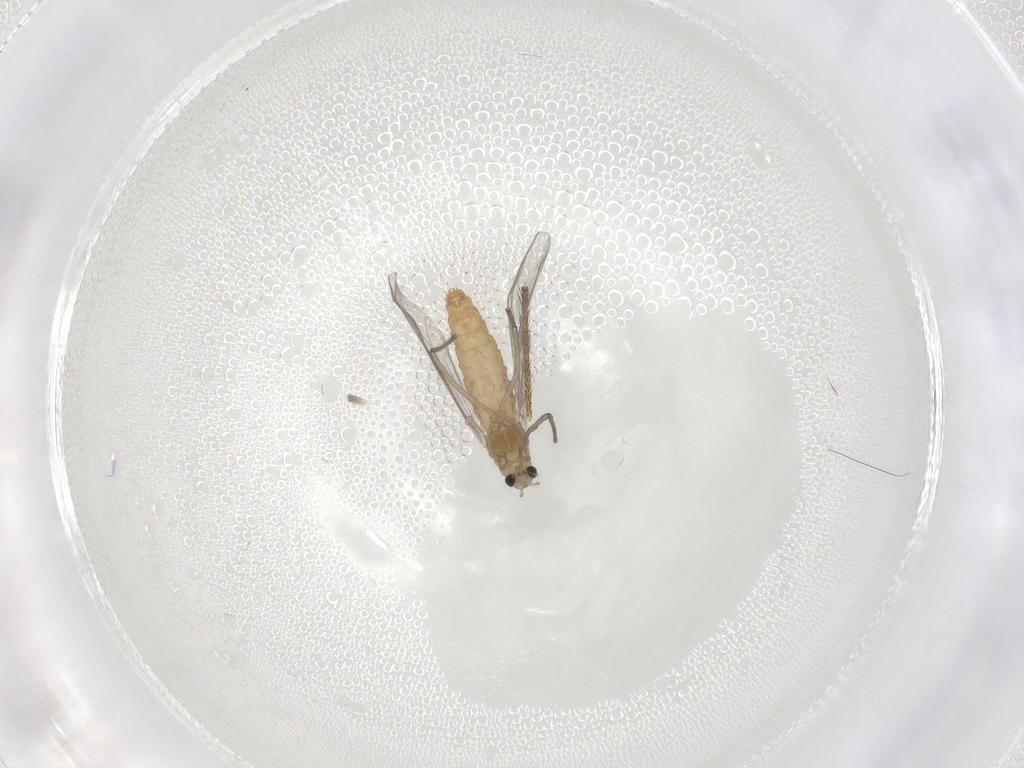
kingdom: Animalia
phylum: Arthropoda
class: Insecta
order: Diptera
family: Chironomidae
